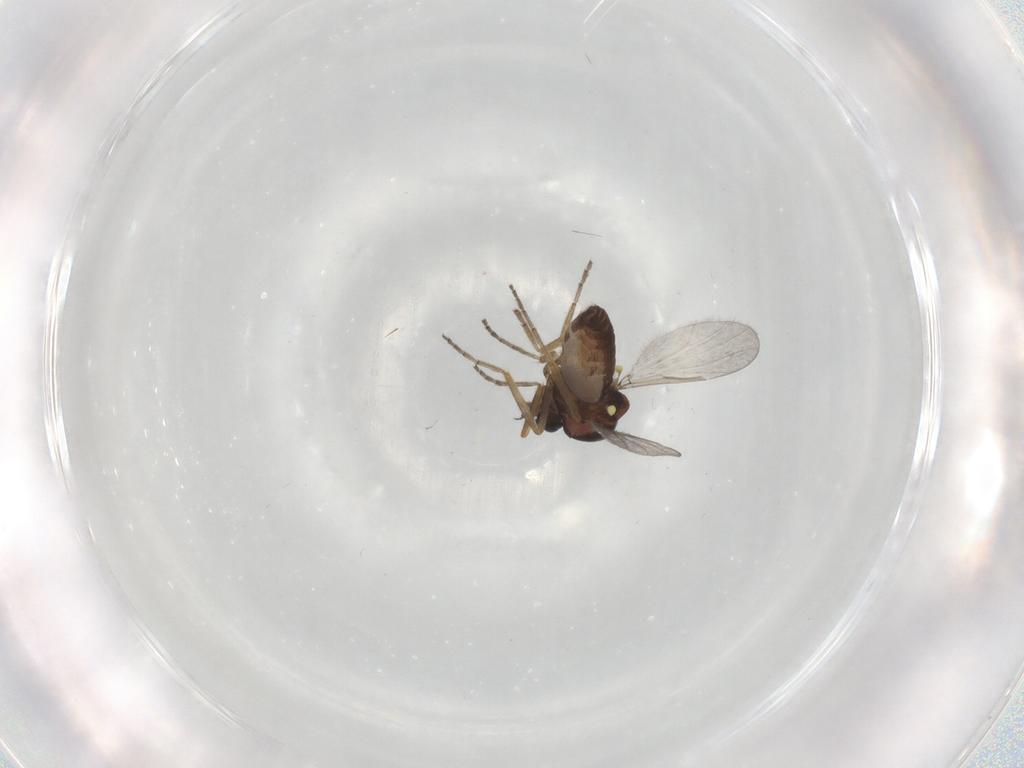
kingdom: Animalia
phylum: Arthropoda
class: Insecta
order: Diptera
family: Ceratopogonidae
